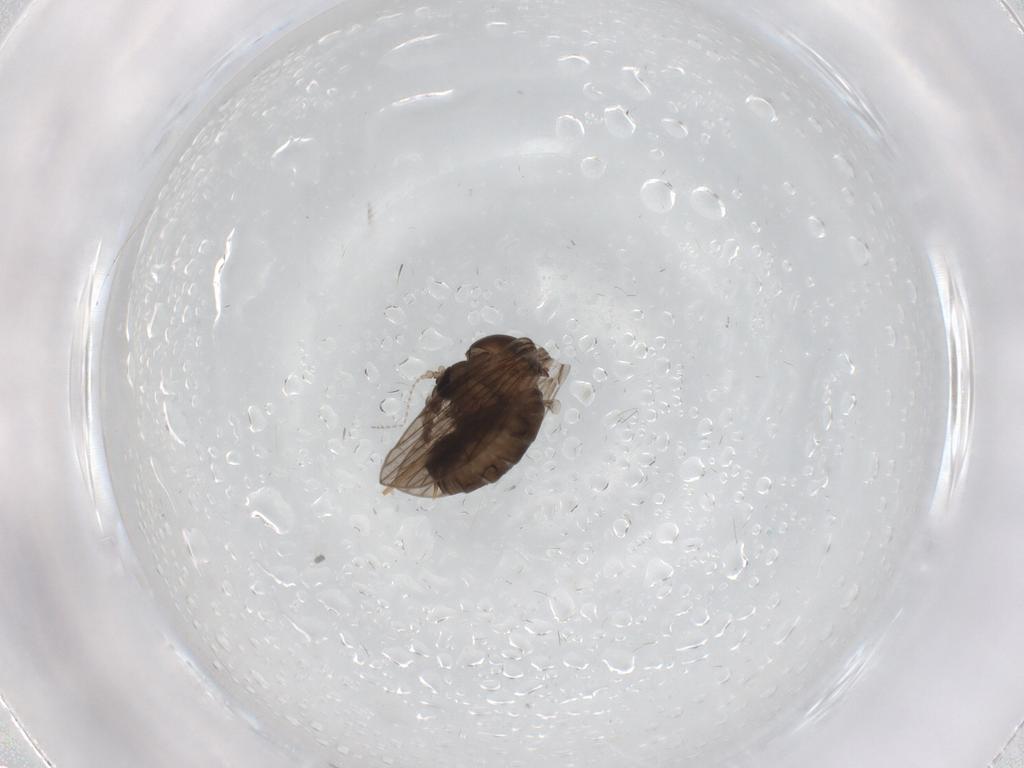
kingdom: Animalia
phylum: Arthropoda
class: Insecta
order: Diptera
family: Psychodidae
